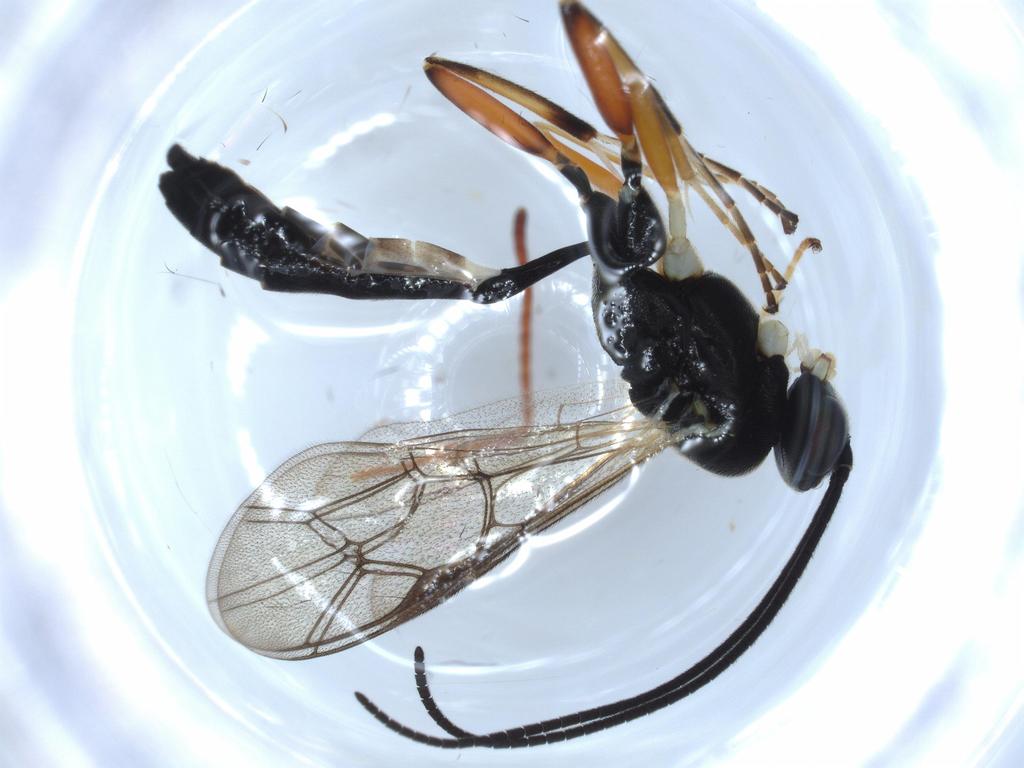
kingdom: Animalia
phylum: Arthropoda
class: Insecta
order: Hymenoptera
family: Ichneumonidae
